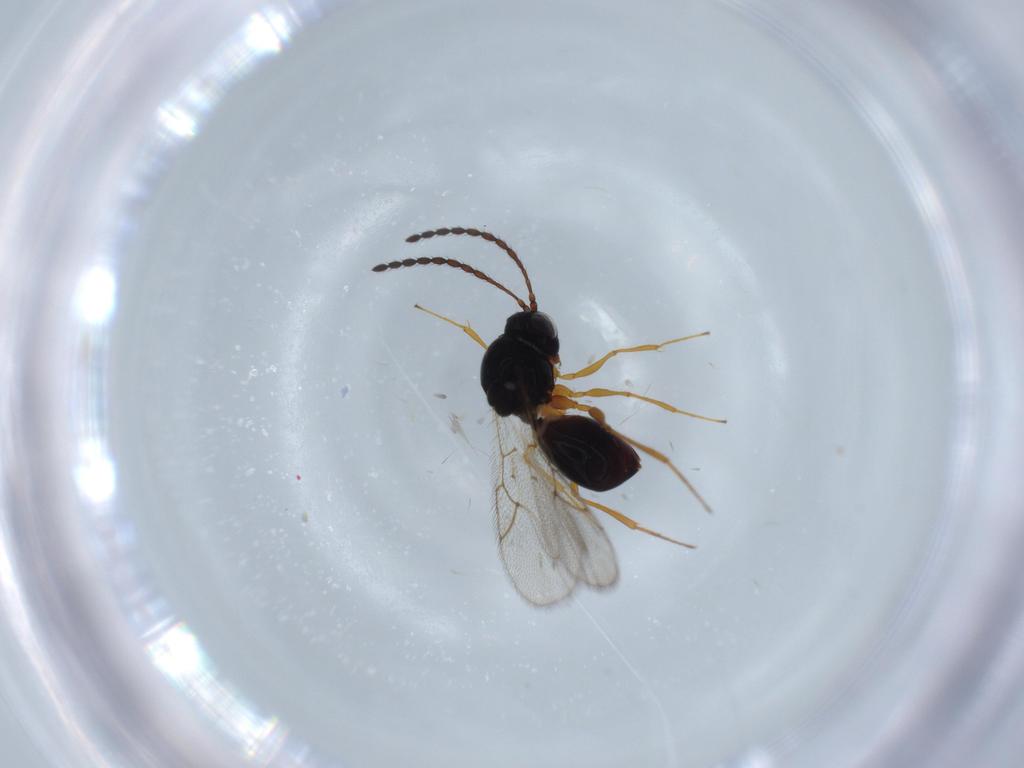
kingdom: Animalia
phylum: Arthropoda
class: Insecta
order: Hymenoptera
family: Figitidae
